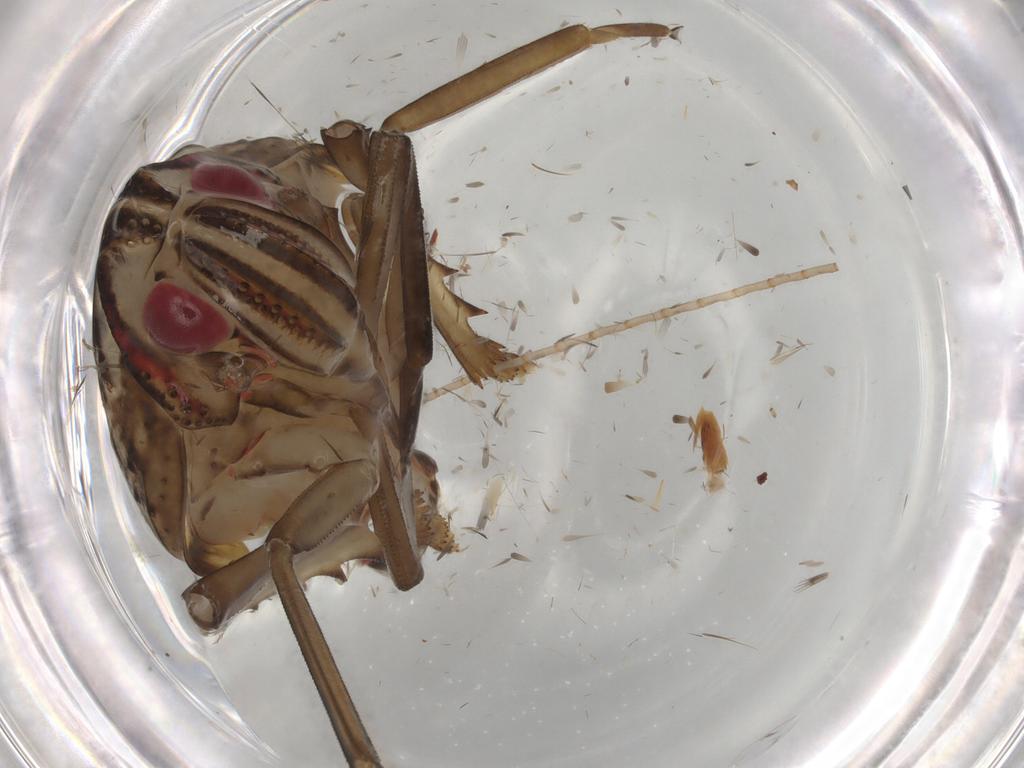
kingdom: Animalia
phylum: Arthropoda
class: Insecta
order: Hemiptera
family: Nogodinidae
